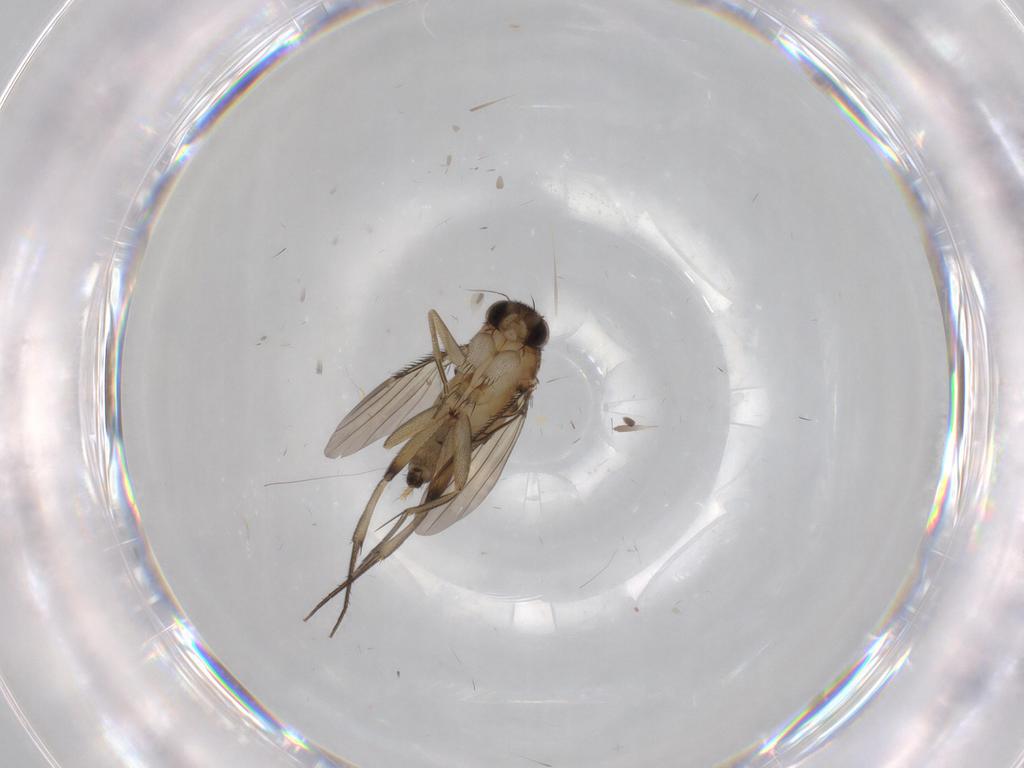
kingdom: Animalia
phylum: Arthropoda
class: Insecta
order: Diptera
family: Phoridae
